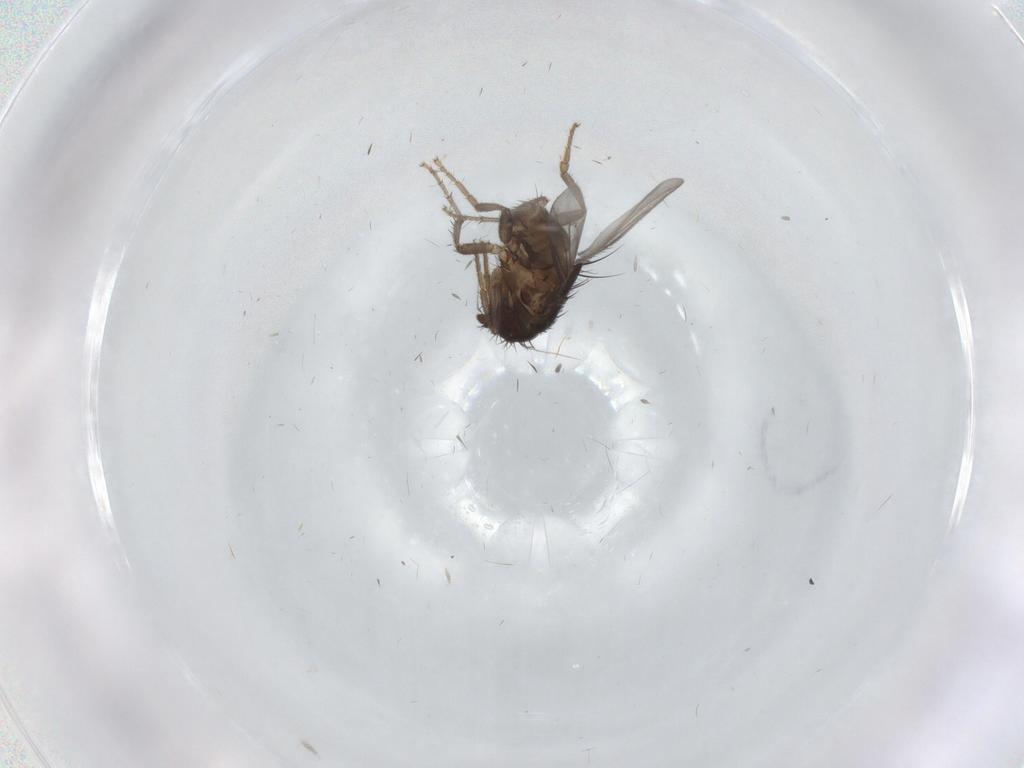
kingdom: Animalia
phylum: Arthropoda
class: Insecta
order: Diptera
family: Sphaeroceridae
